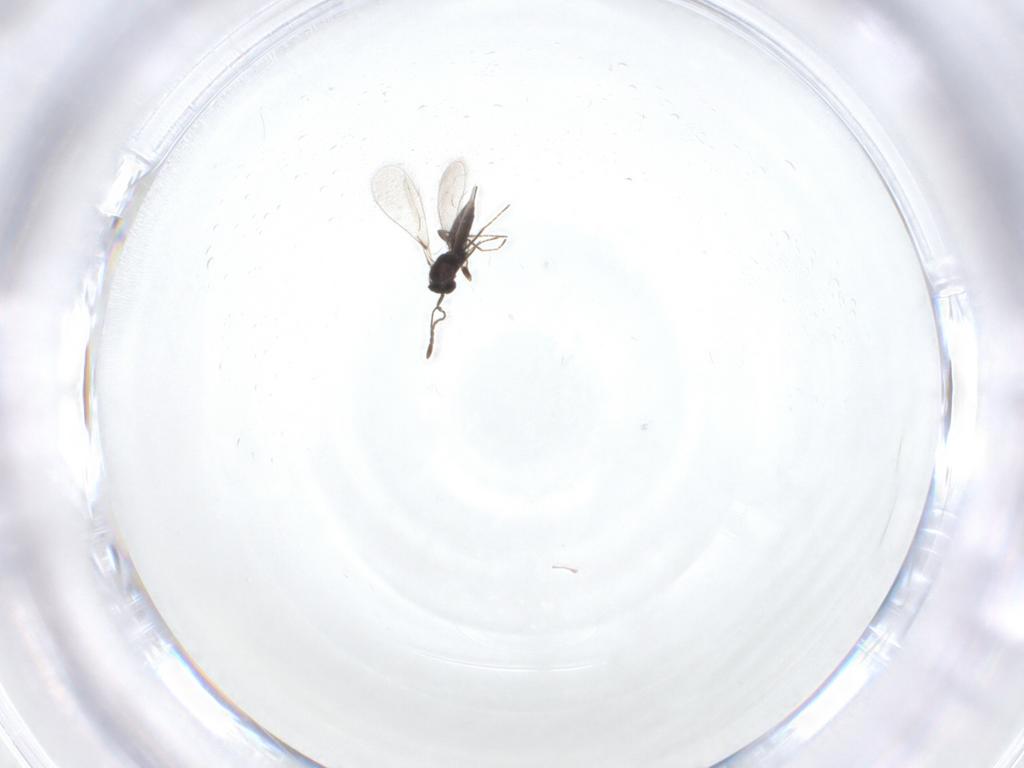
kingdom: Animalia
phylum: Arthropoda
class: Insecta
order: Hymenoptera
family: Mymaridae
